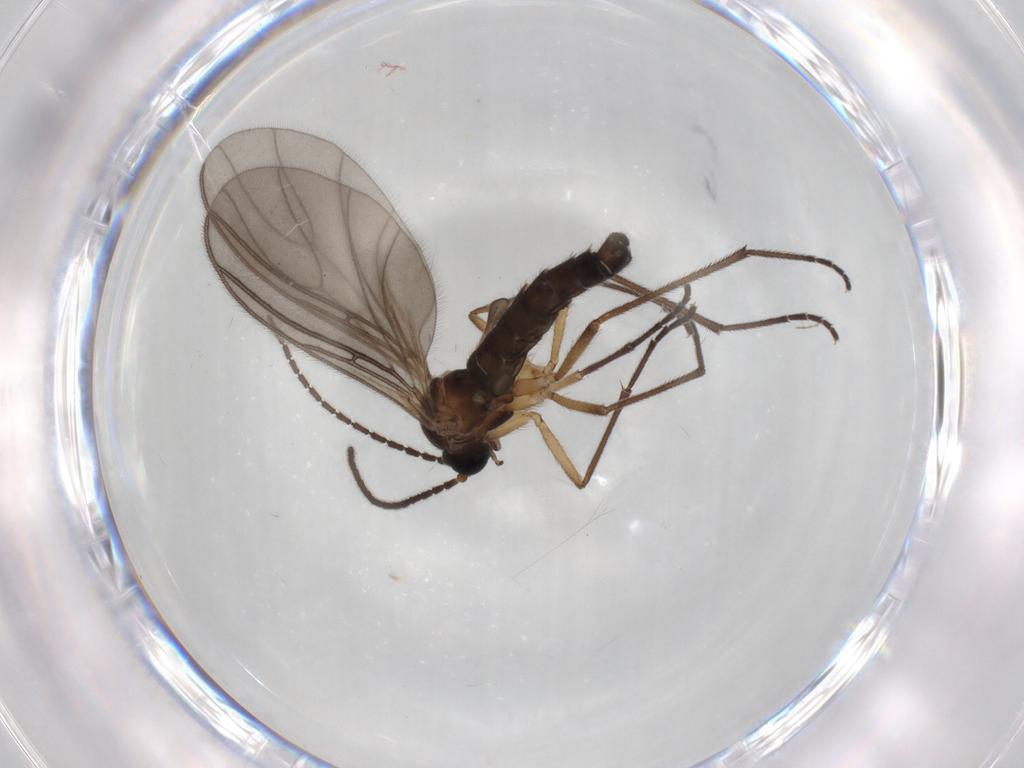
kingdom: Animalia
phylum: Arthropoda
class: Insecta
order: Diptera
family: Sciaridae
